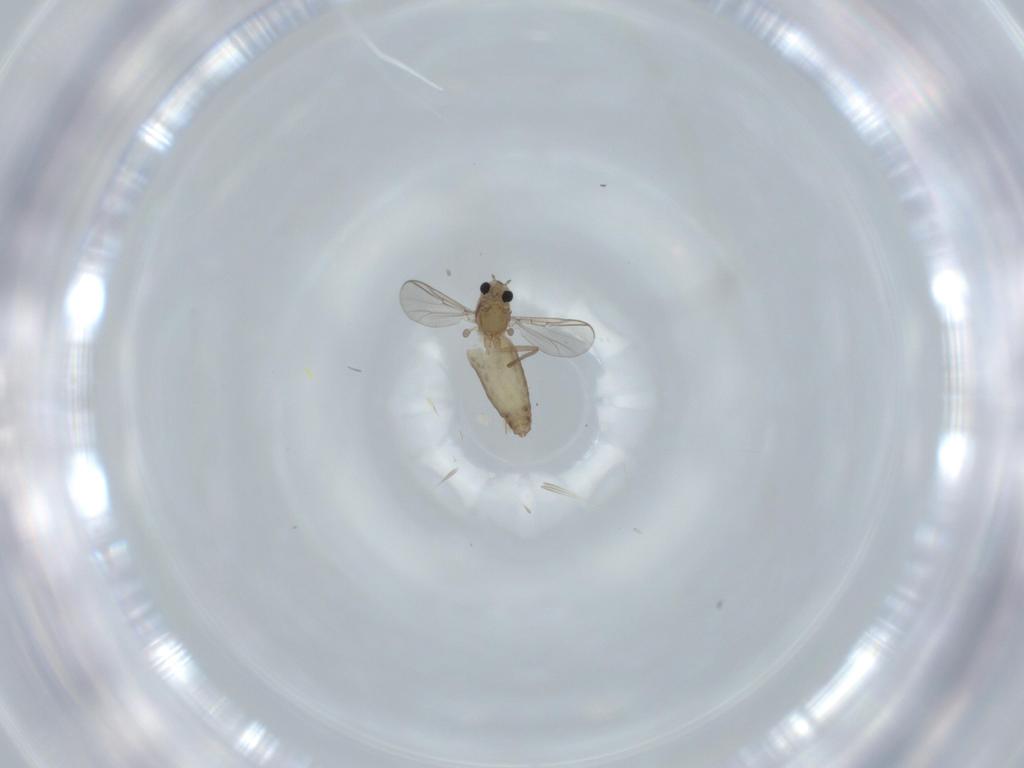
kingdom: Animalia
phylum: Arthropoda
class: Insecta
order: Diptera
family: Chironomidae
